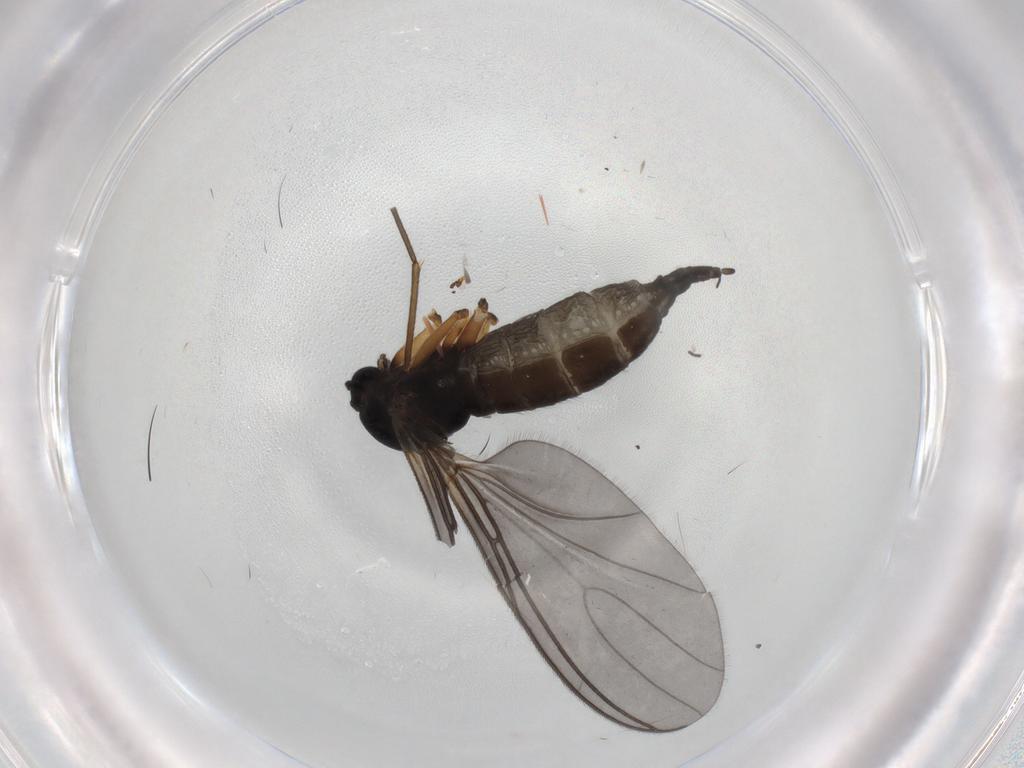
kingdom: Animalia
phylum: Arthropoda
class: Insecta
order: Diptera
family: Sciaridae
